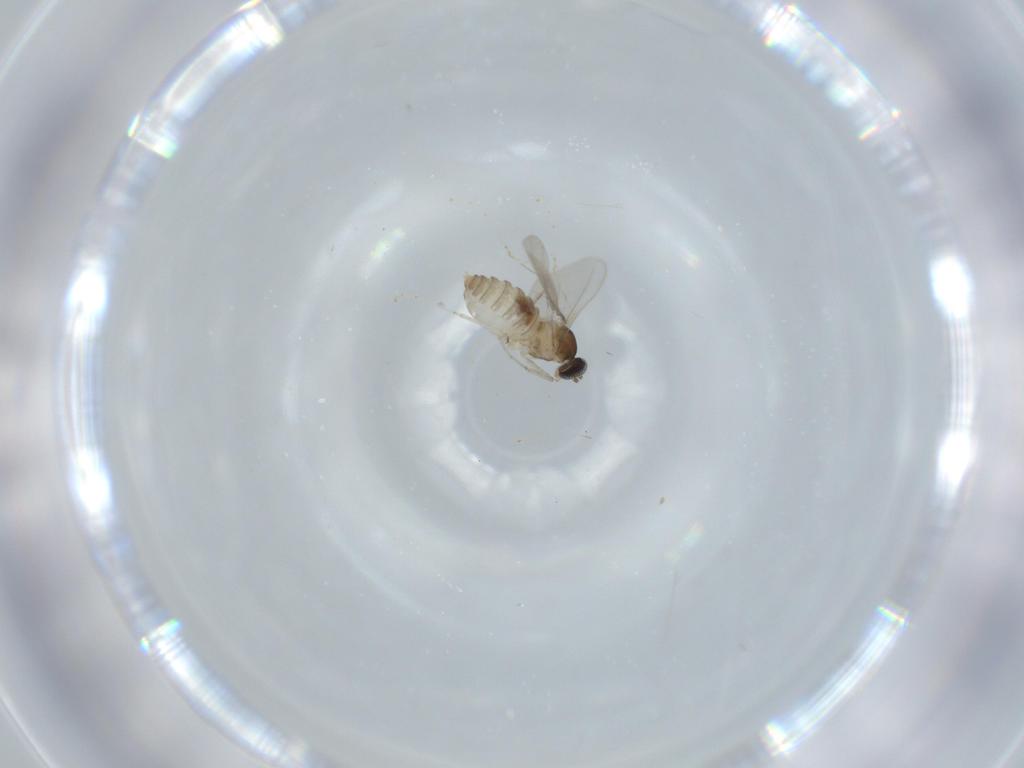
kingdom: Animalia
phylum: Arthropoda
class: Insecta
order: Diptera
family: Cecidomyiidae
